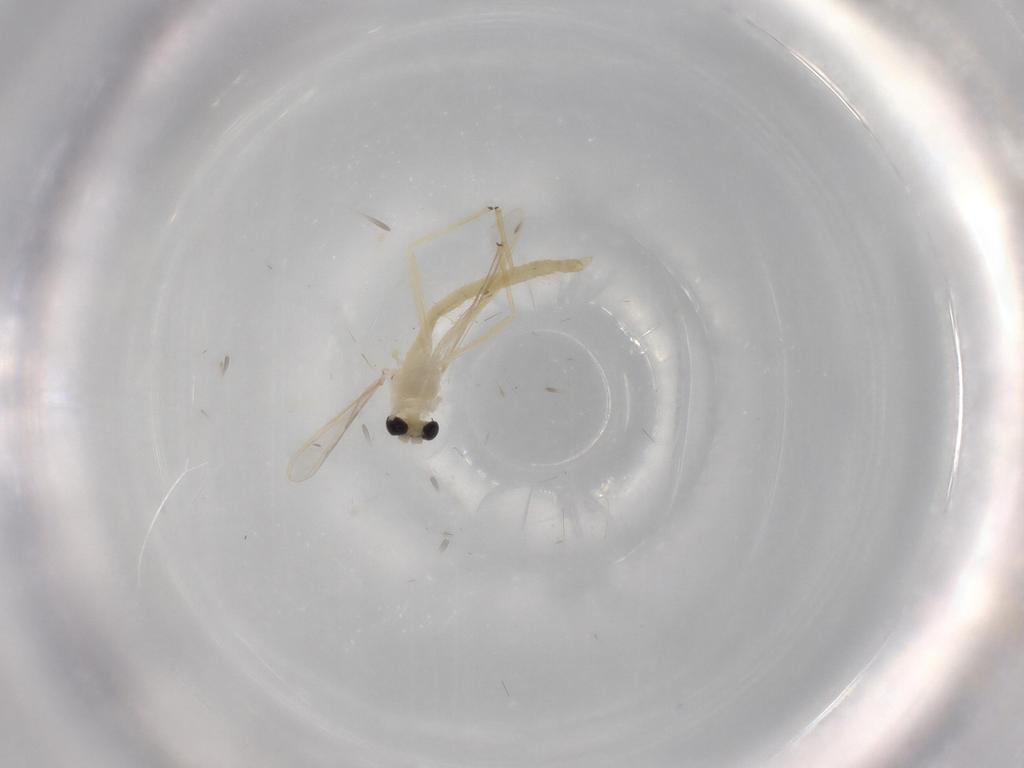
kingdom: Animalia
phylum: Arthropoda
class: Insecta
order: Diptera
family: Chironomidae
